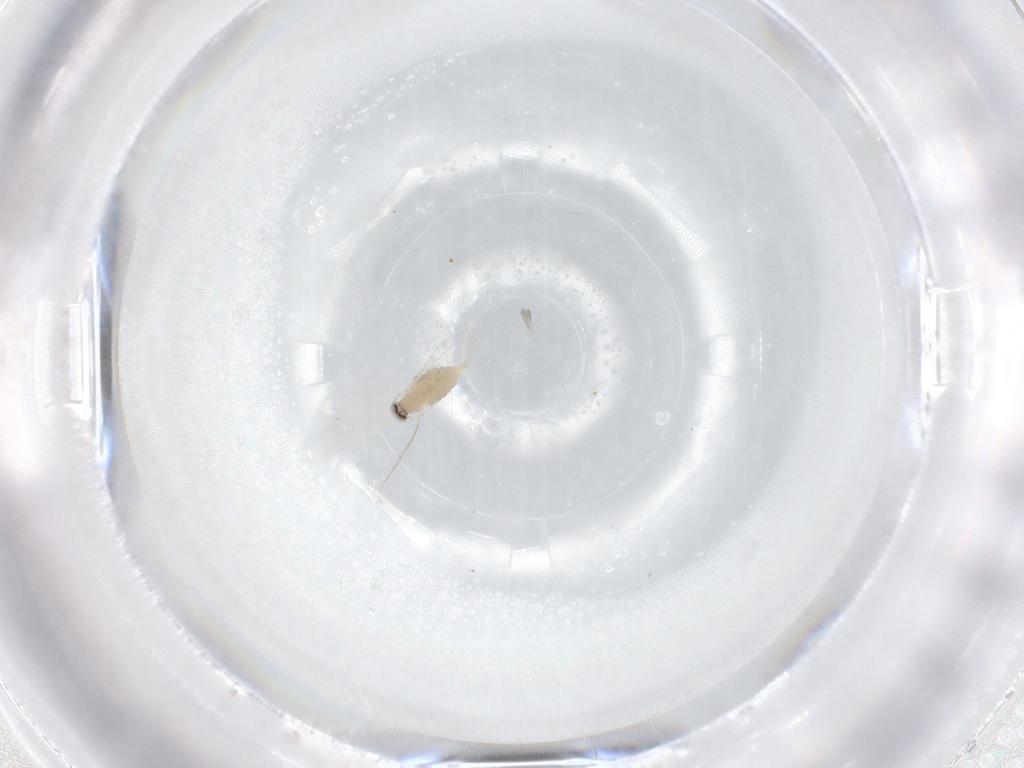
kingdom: Animalia
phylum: Arthropoda
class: Insecta
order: Diptera
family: Cecidomyiidae
